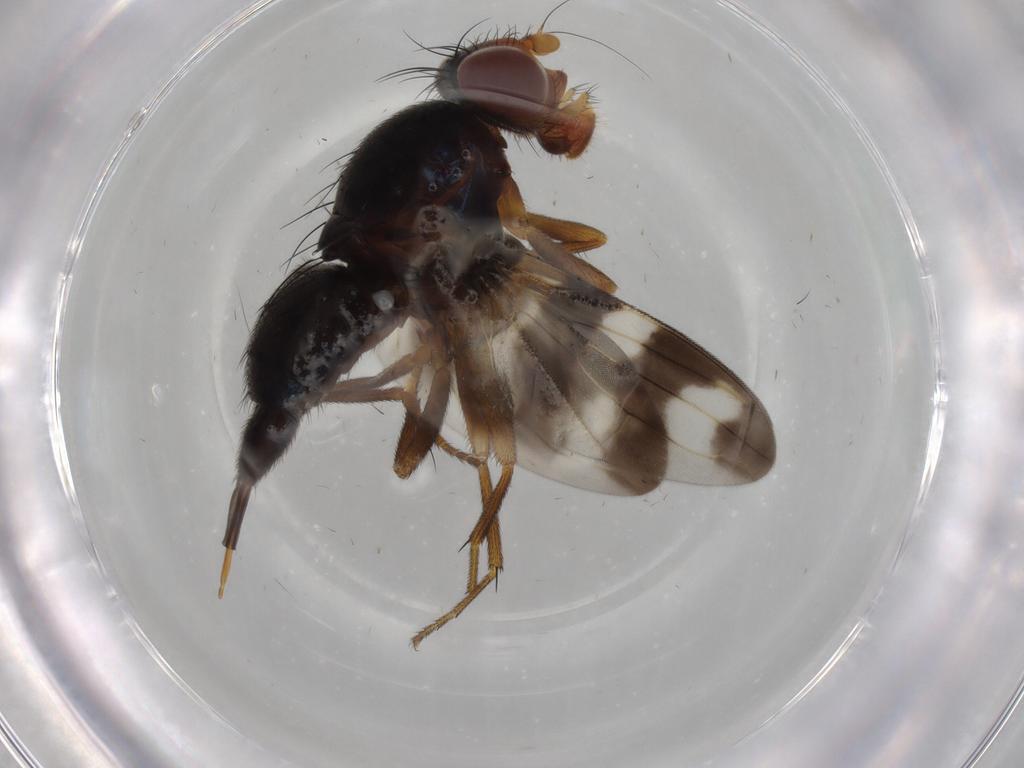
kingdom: Animalia
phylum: Arthropoda
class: Insecta
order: Diptera
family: Ulidiidae
